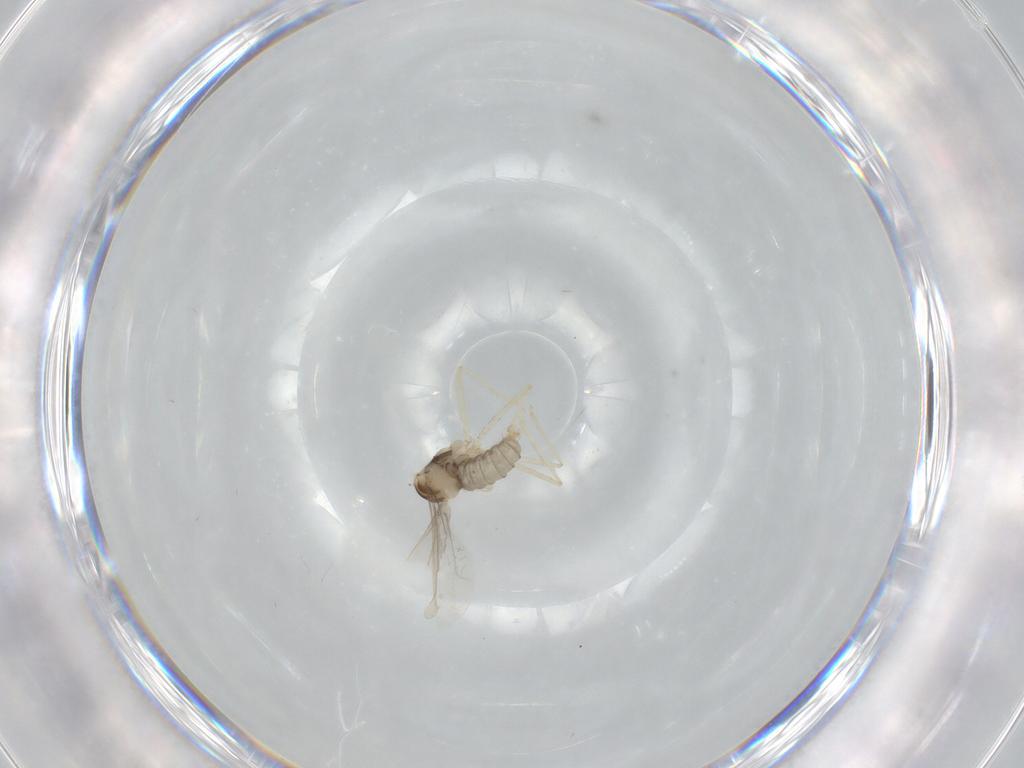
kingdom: Animalia
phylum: Arthropoda
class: Insecta
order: Diptera
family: Cecidomyiidae
